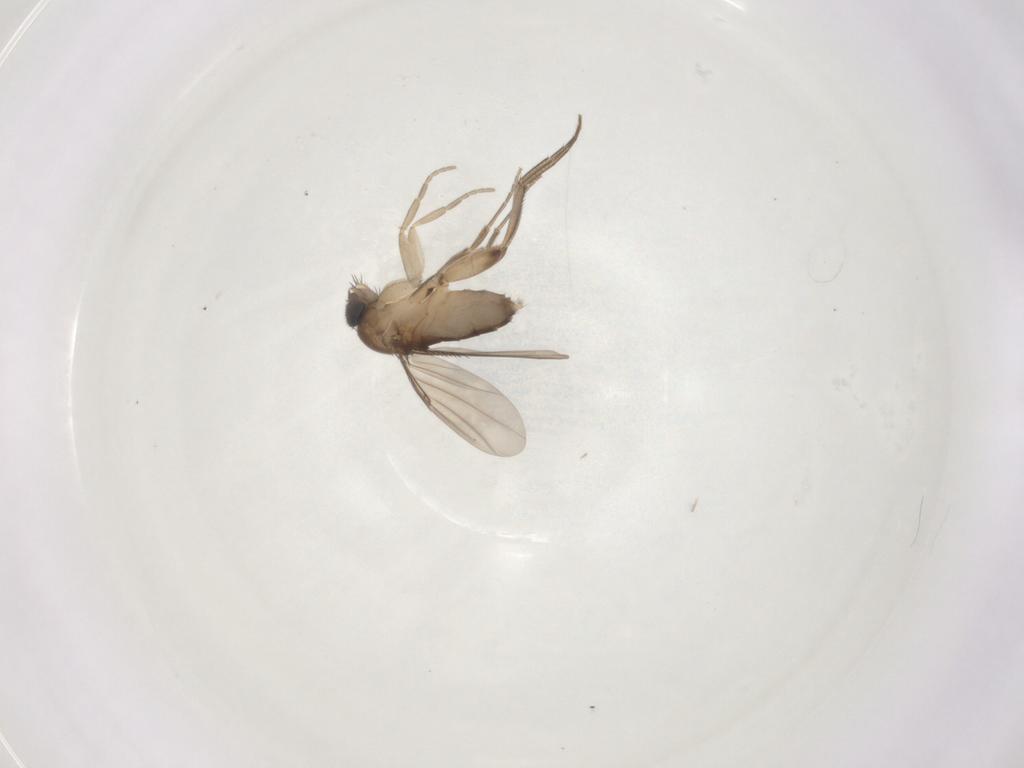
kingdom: Animalia
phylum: Arthropoda
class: Insecta
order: Diptera
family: Phoridae
